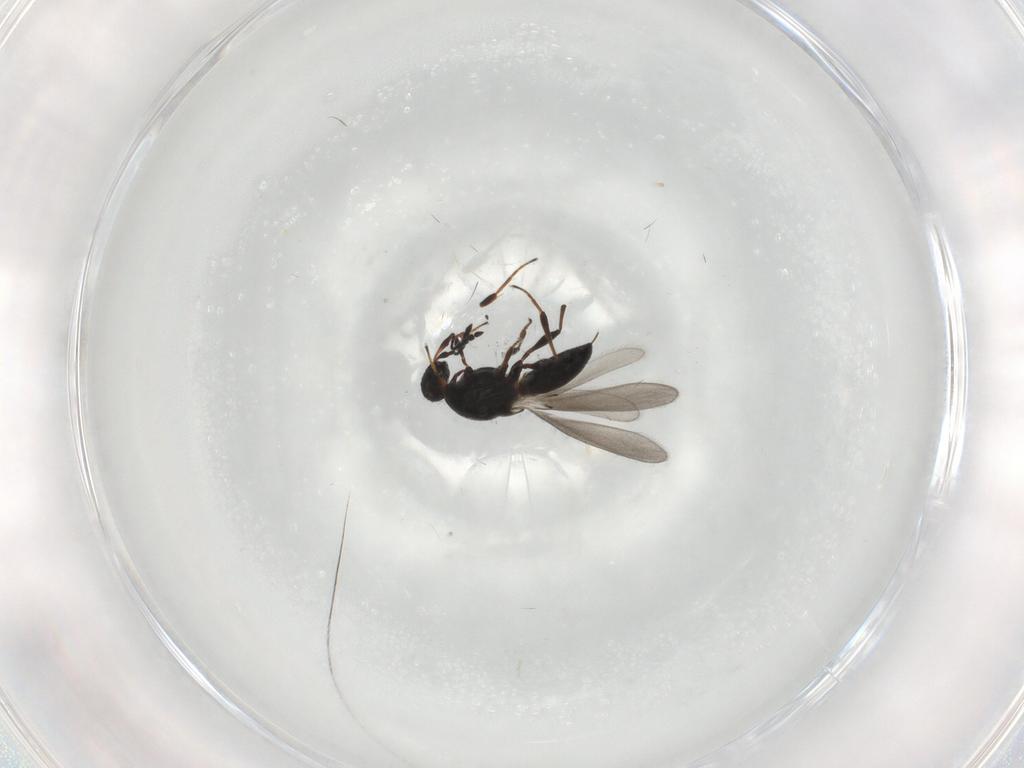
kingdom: Animalia
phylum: Arthropoda
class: Insecta
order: Hymenoptera
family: Platygastridae
